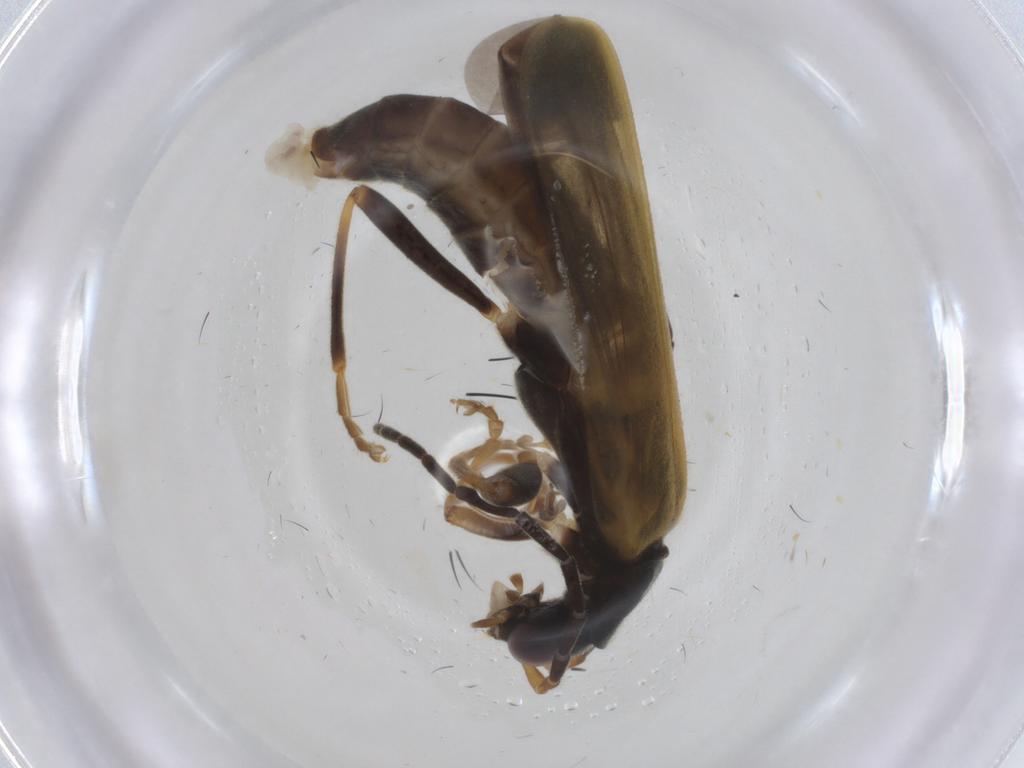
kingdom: Animalia
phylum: Arthropoda
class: Insecta
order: Coleoptera
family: Cantharidae
